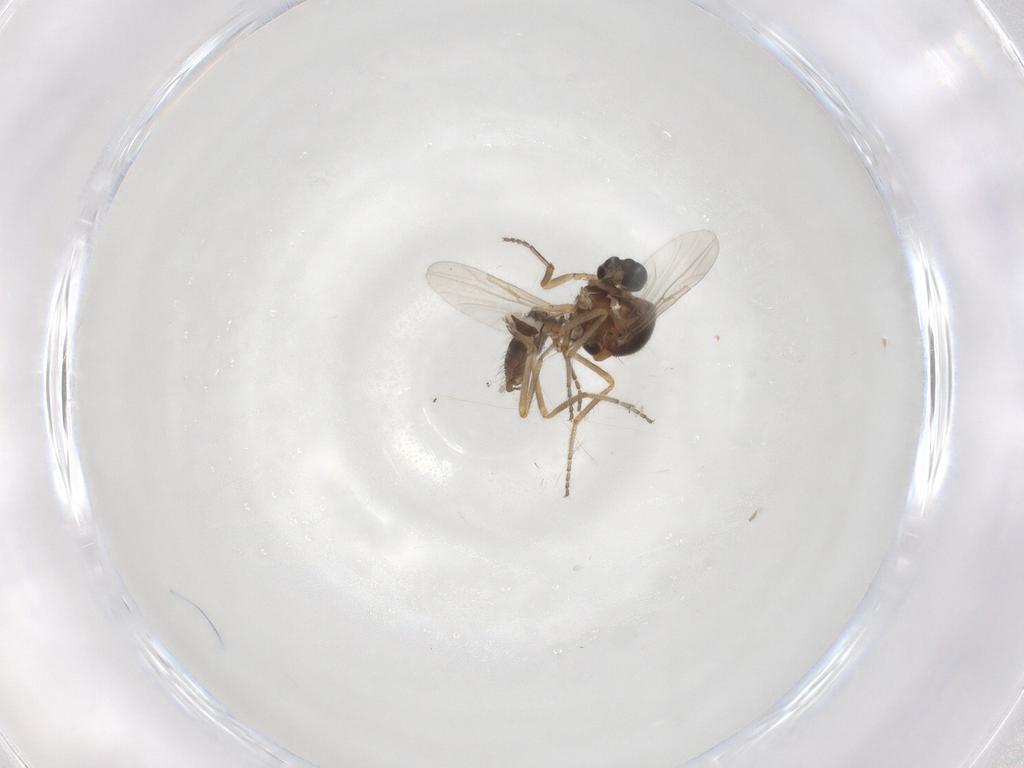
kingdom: Animalia
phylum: Arthropoda
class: Insecta
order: Diptera
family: Ceratopogonidae
